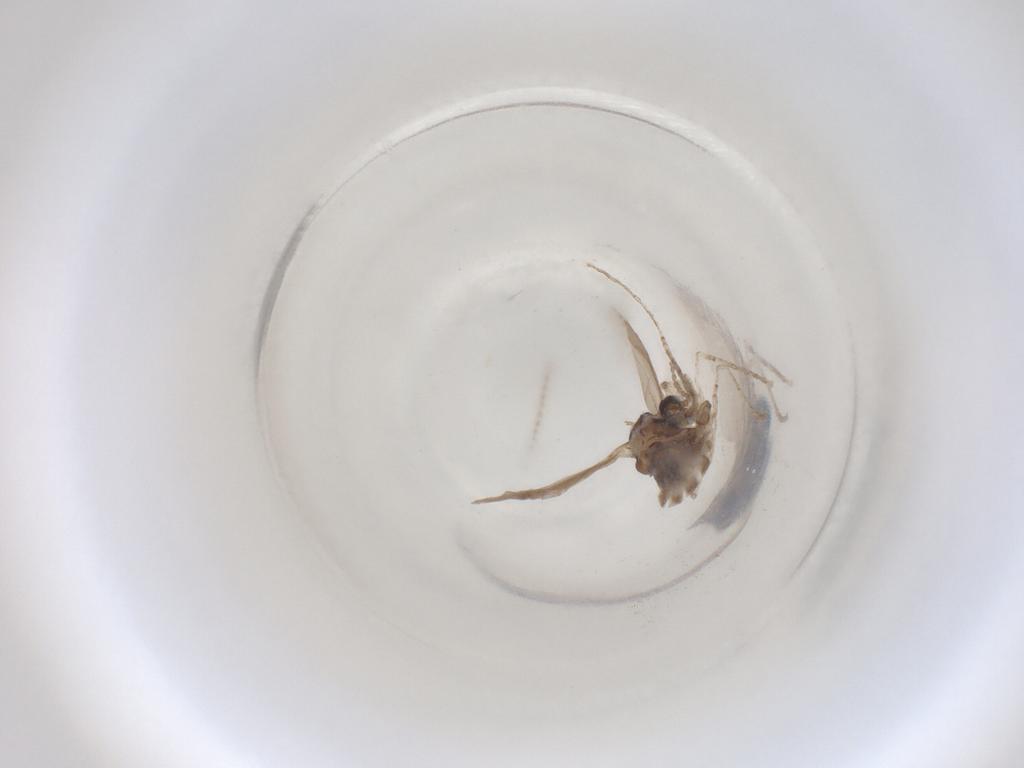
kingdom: Animalia
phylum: Arthropoda
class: Insecta
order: Diptera
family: Cecidomyiidae
